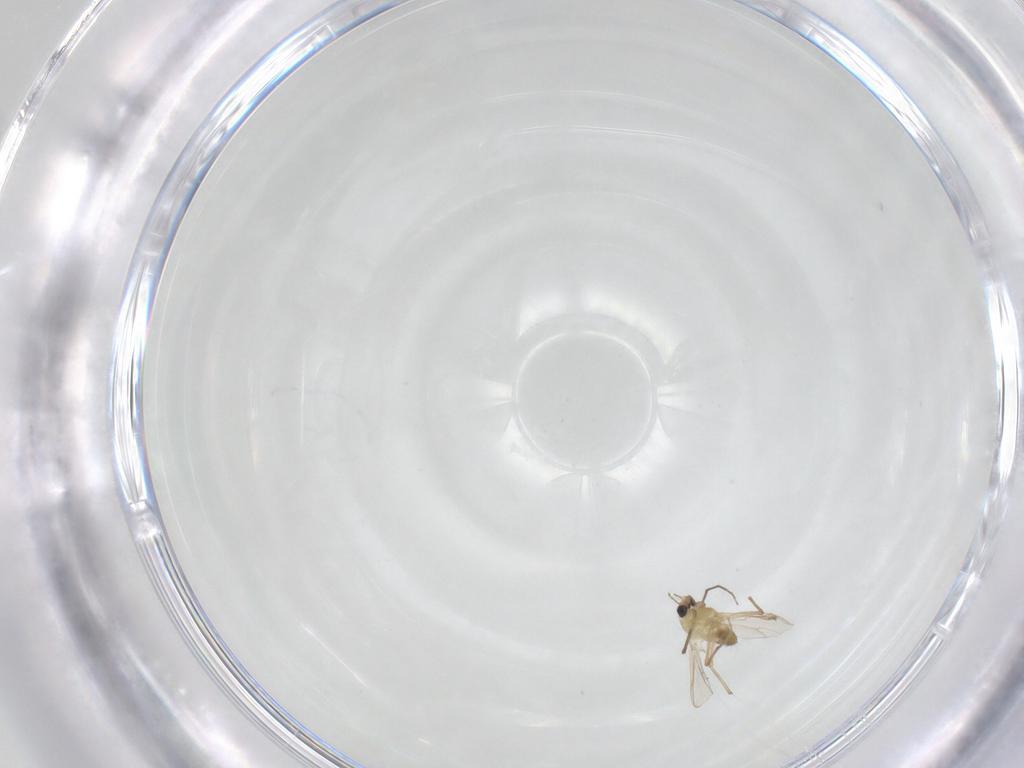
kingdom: Animalia
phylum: Arthropoda
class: Insecta
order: Diptera
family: Chironomidae
